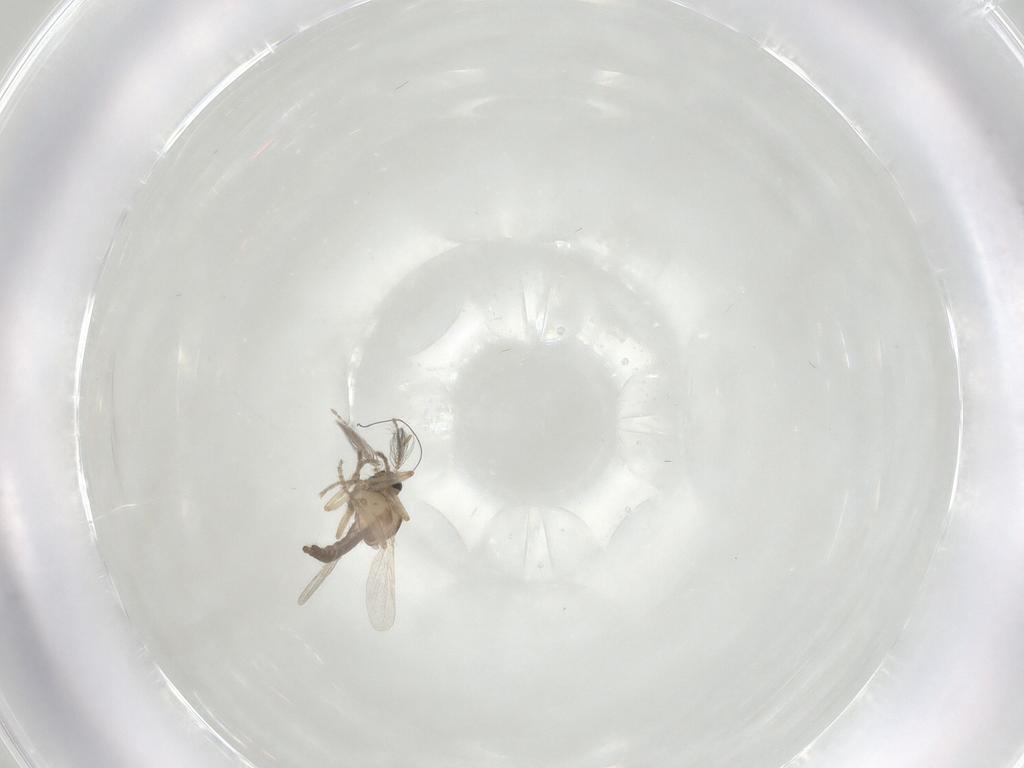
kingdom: Animalia
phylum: Arthropoda
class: Insecta
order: Diptera
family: Ceratopogonidae
